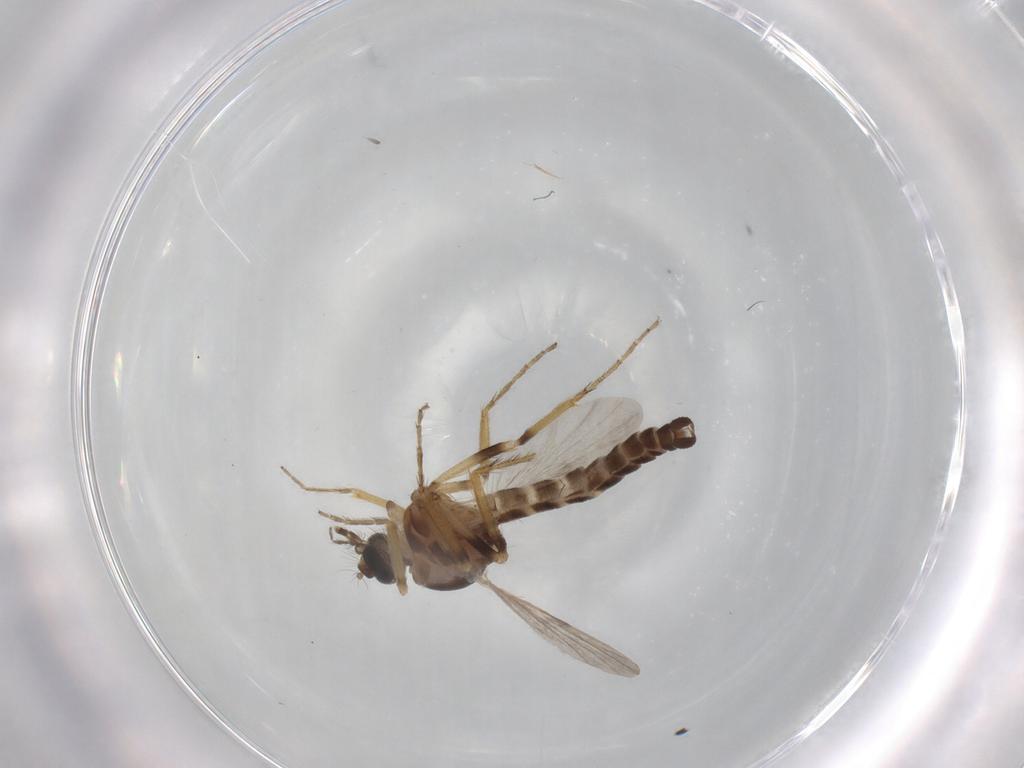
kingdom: Animalia
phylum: Arthropoda
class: Insecta
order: Diptera
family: Ceratopogonidae
